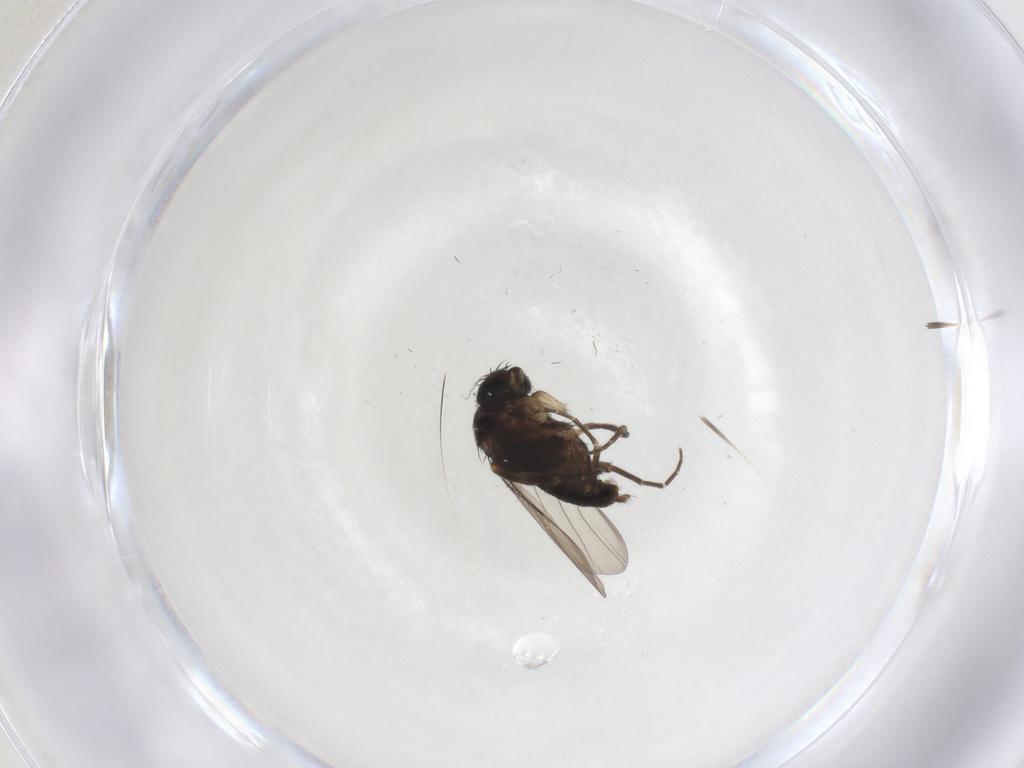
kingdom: Animalia
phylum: Arthropoda
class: Insecta
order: Diptera
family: Phoridae
